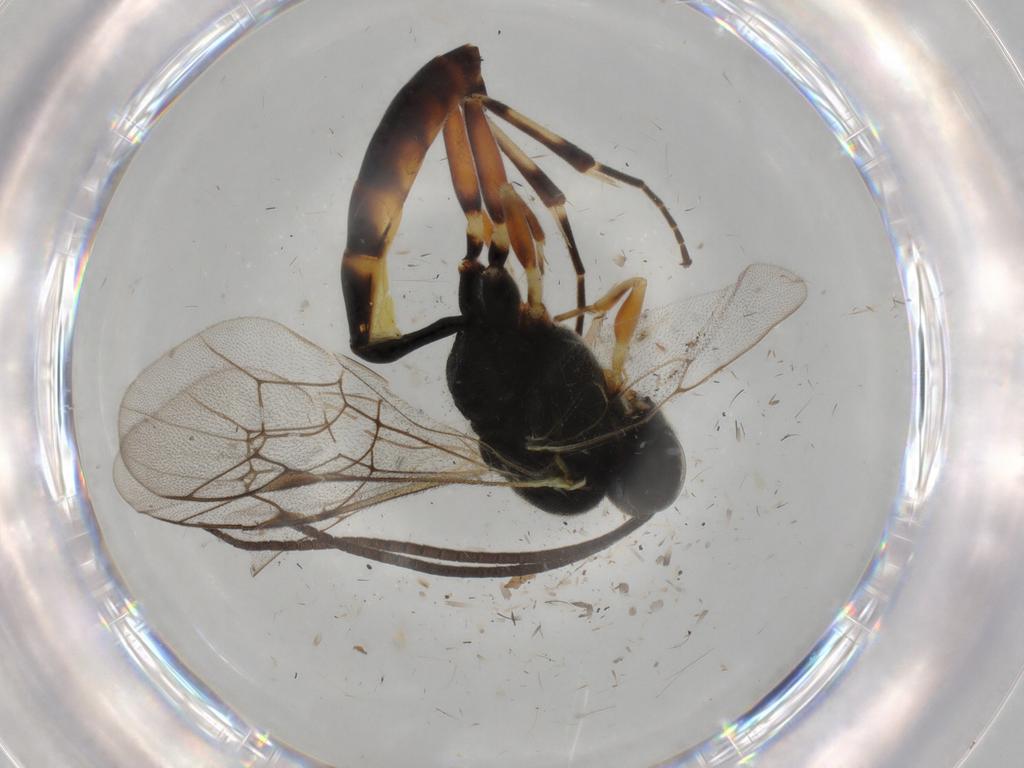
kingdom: Animalia
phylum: Arthropoda
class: Insecta
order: Hymenoptera
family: Ichneumonidae
